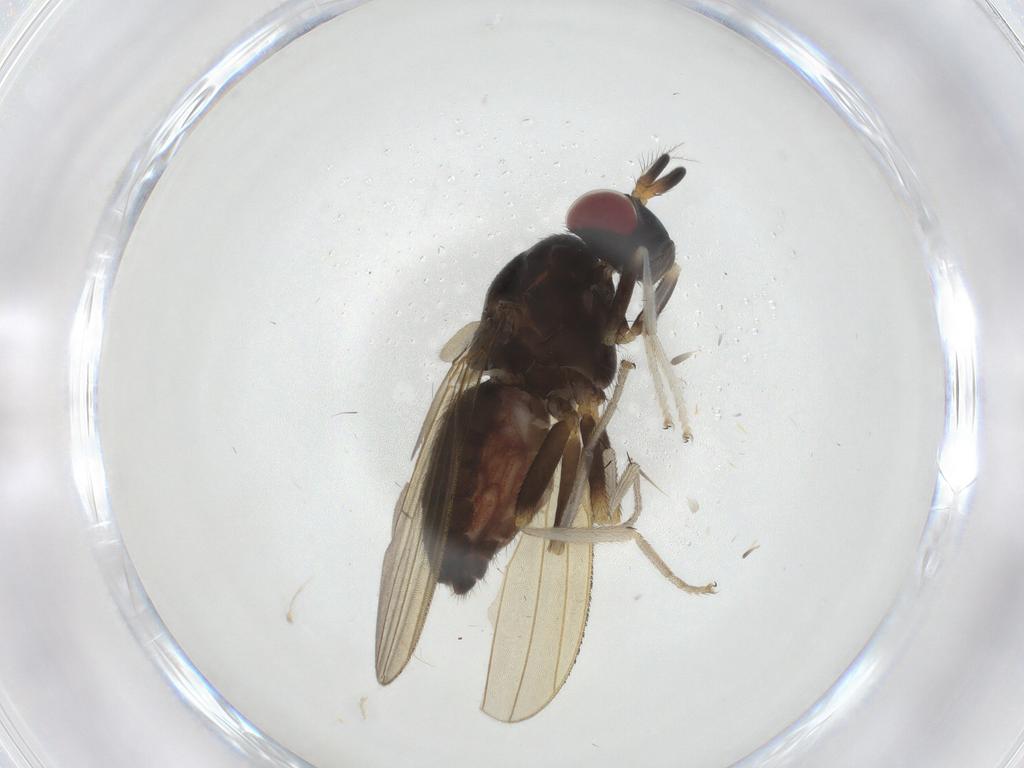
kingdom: Animalia
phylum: Arthropoda
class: Insecta
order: Diptera
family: Lauxaniidae
